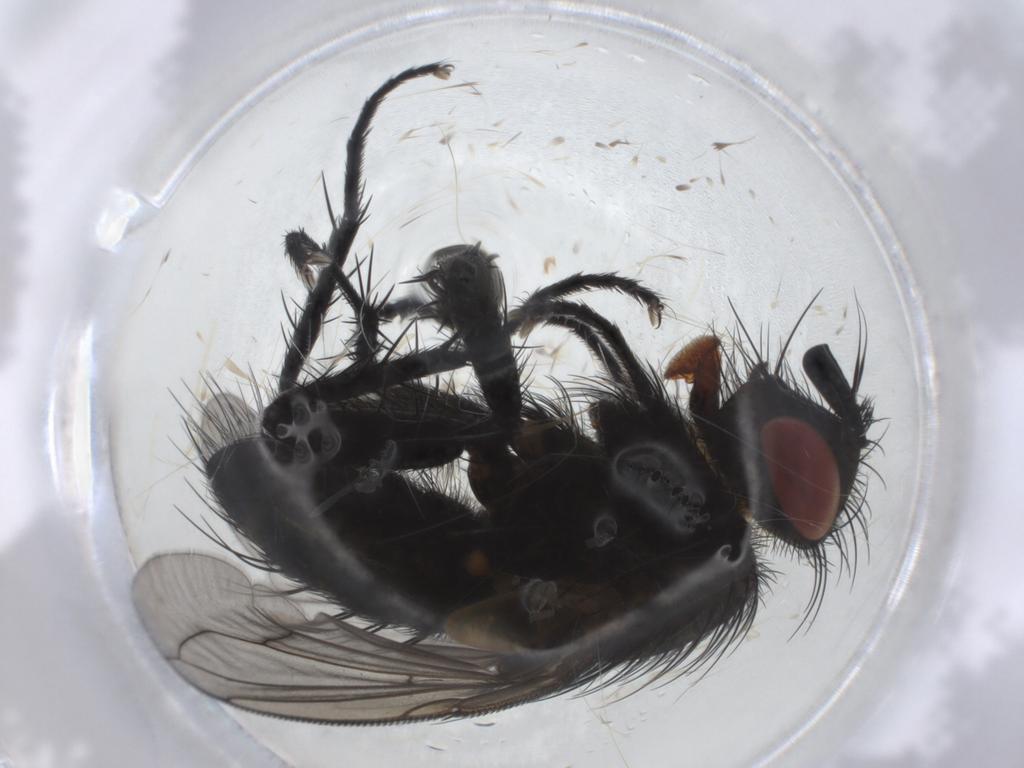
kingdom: Animalia
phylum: Arthropoda
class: Insecta
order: Diptera
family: Tachinidae
